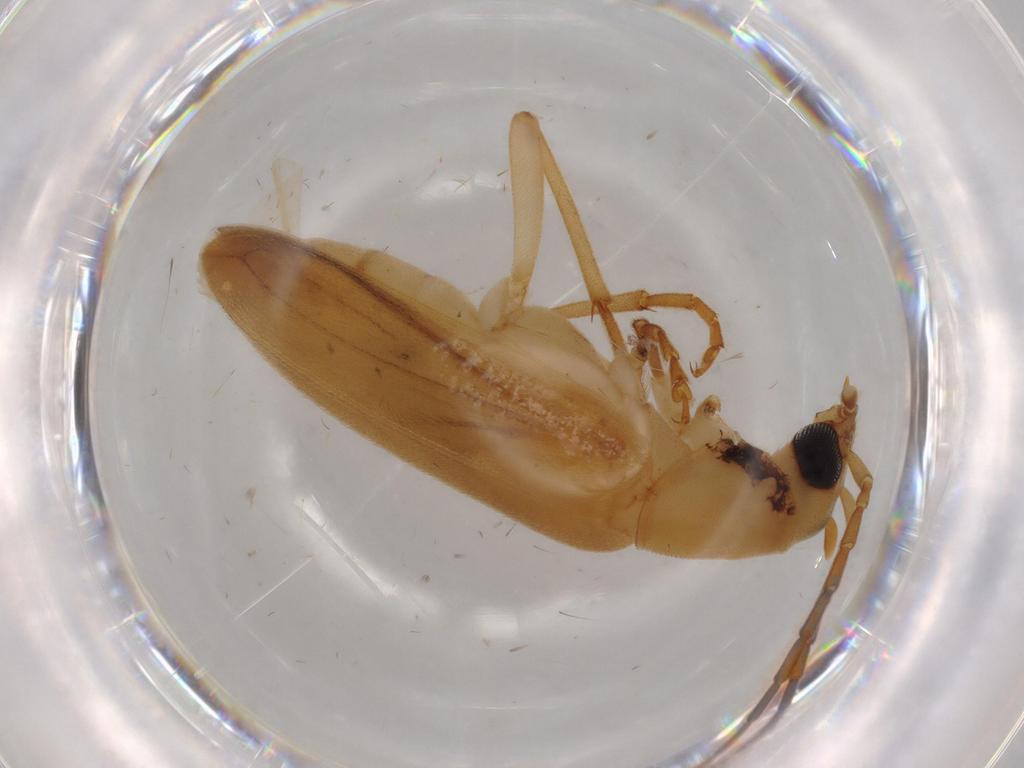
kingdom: Animalia
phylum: Arthropoda
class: Insecta
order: Coleoptera
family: Oedemeridae
